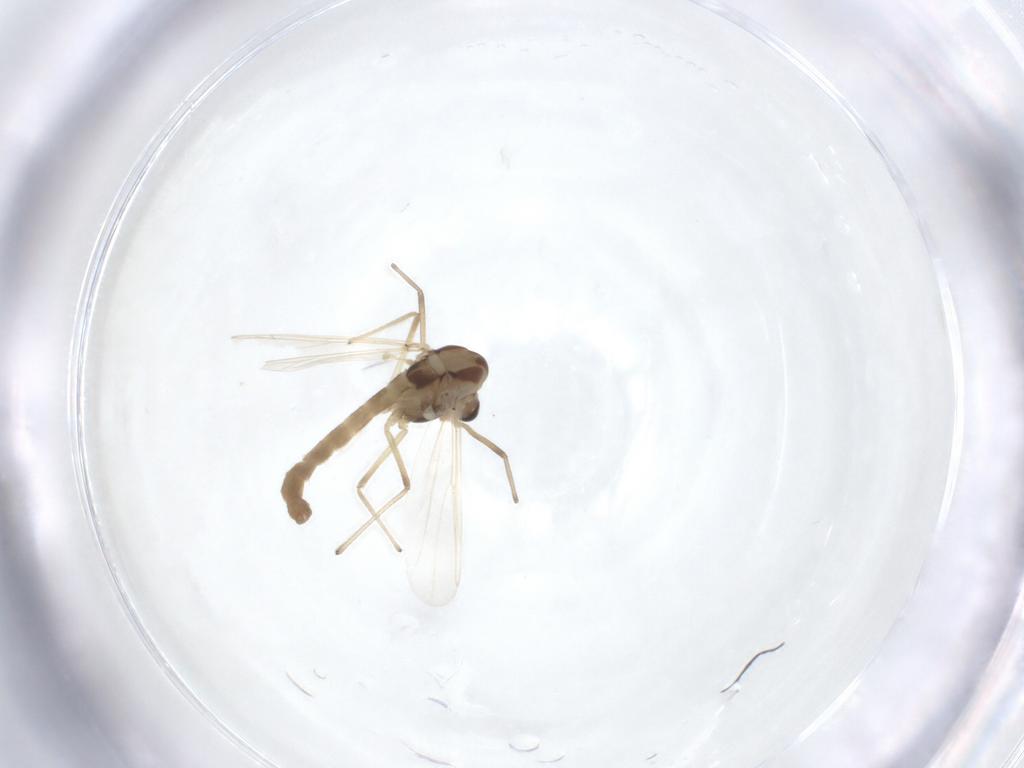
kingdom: Animalia
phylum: Arthropoda
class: Insecta
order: Diptera
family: Chironomidae
